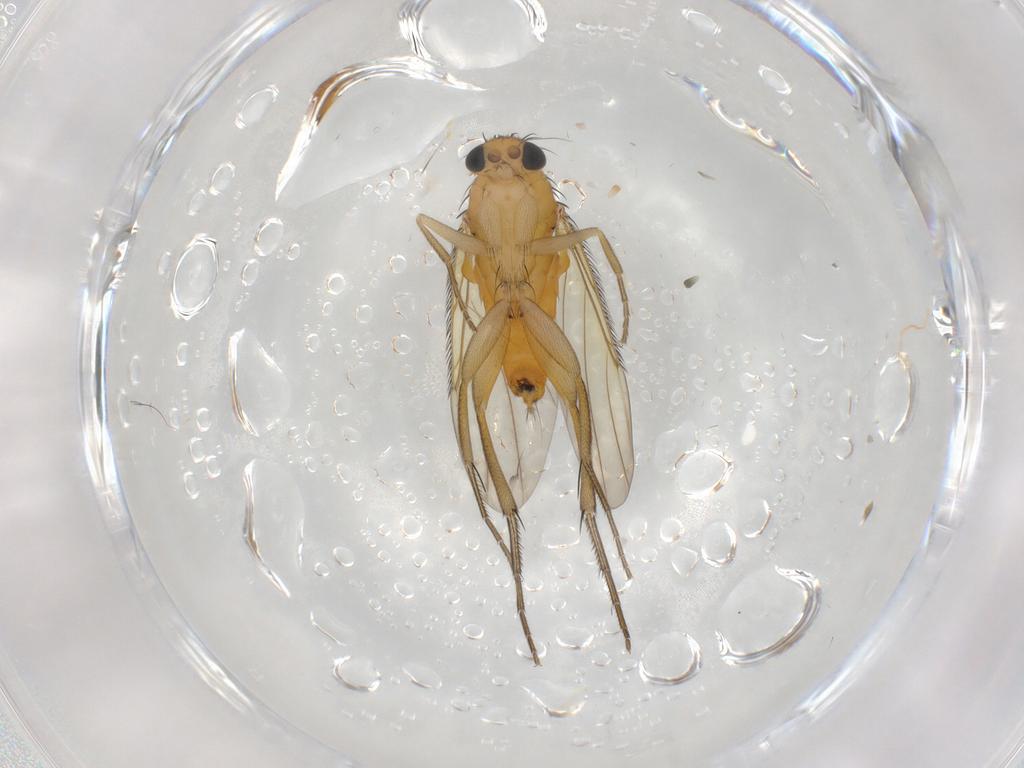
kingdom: Animalia
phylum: Arthropoda
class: Insecta
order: Diptera
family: Phoridae
